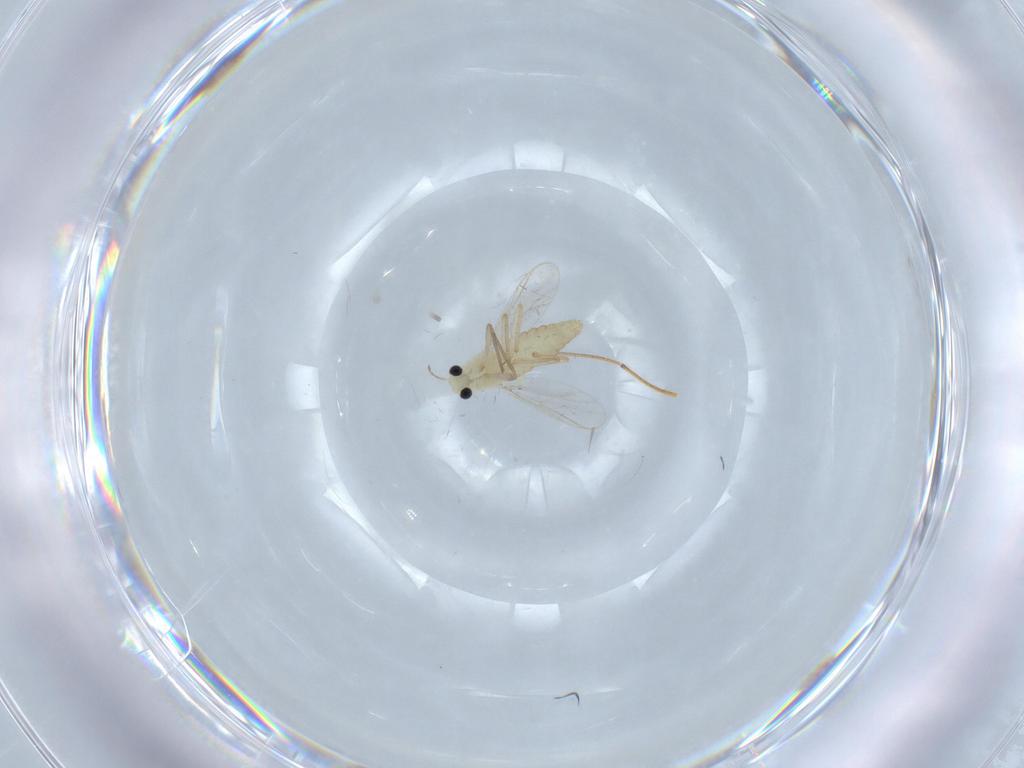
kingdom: Animalia
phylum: Arthropoda
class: Insecta
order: Diptera
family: Chironomidae
